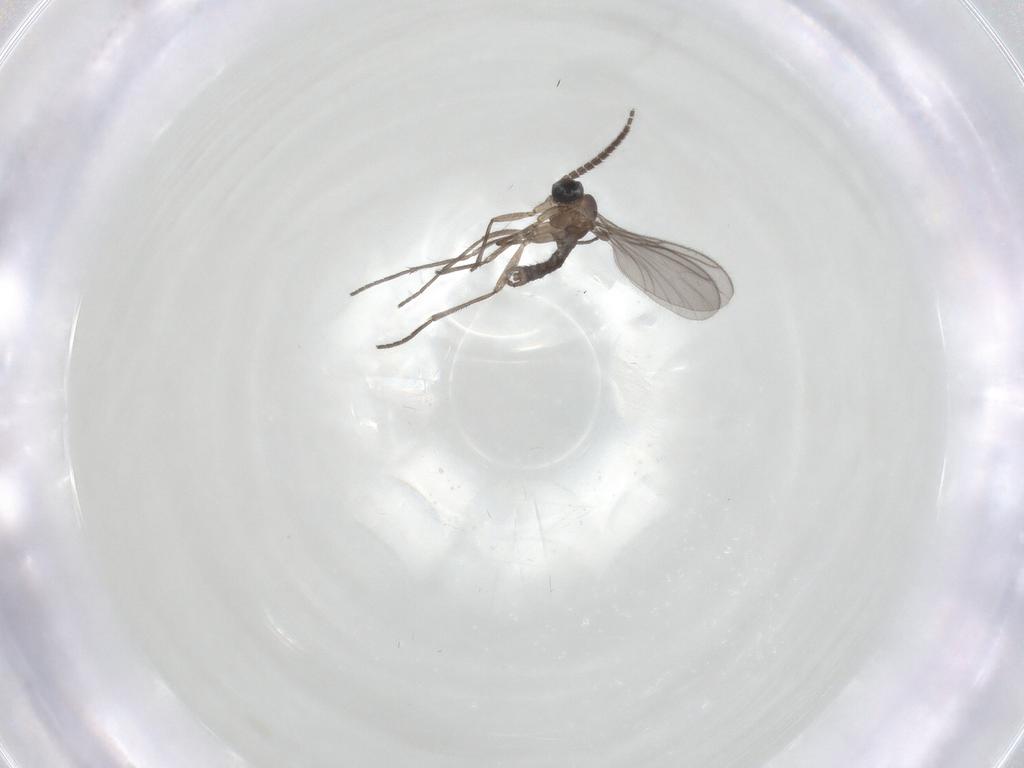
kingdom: Animalia
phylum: Arthropoda
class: Insecta
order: Diptera
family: Sciaridae
